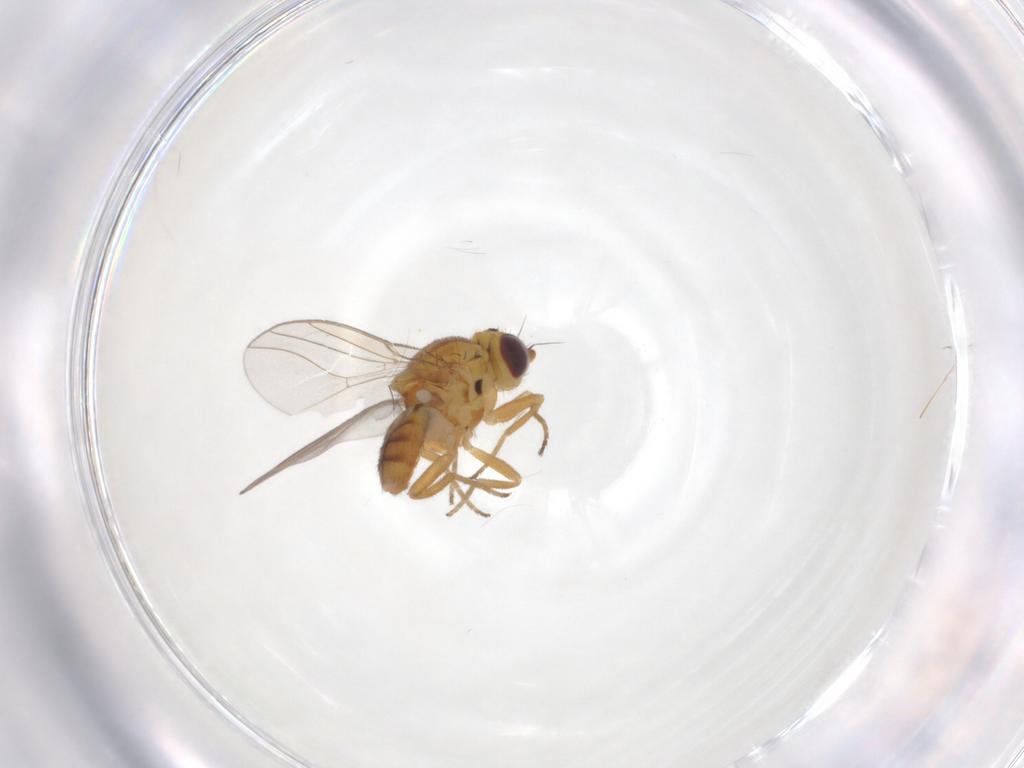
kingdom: Animalia
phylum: Arthropoda
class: Insecta
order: Diptera
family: Chloropidae
